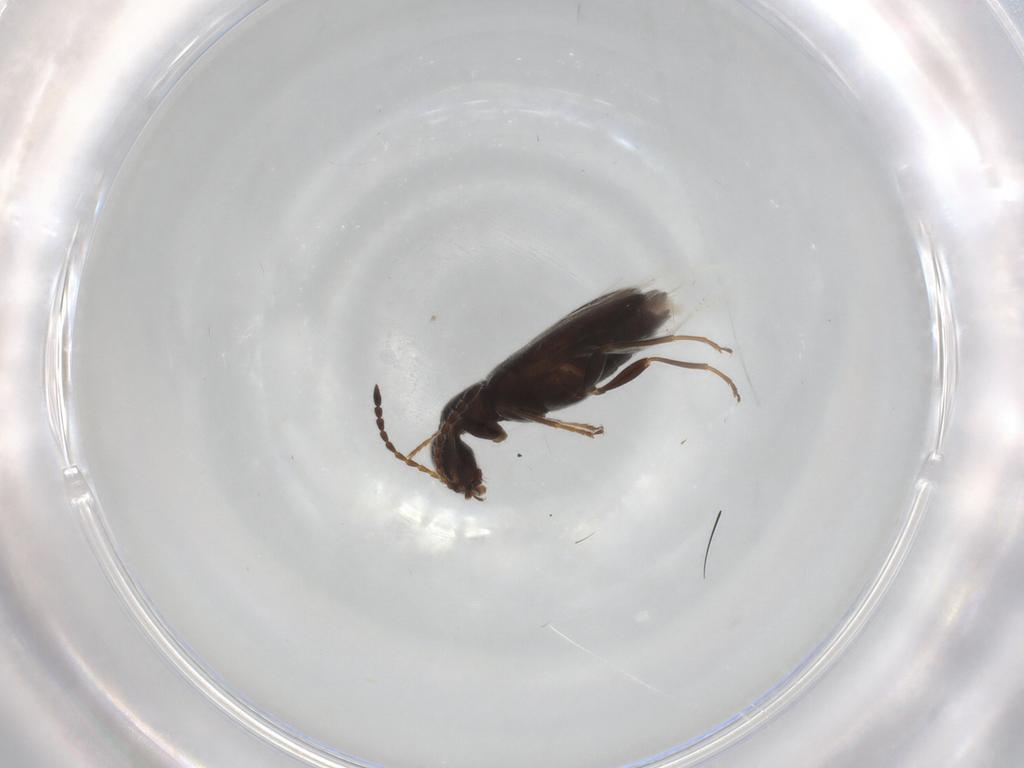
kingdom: Animalia
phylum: Arthropoda
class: Insecta
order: Coleoptera
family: Anthicidae
